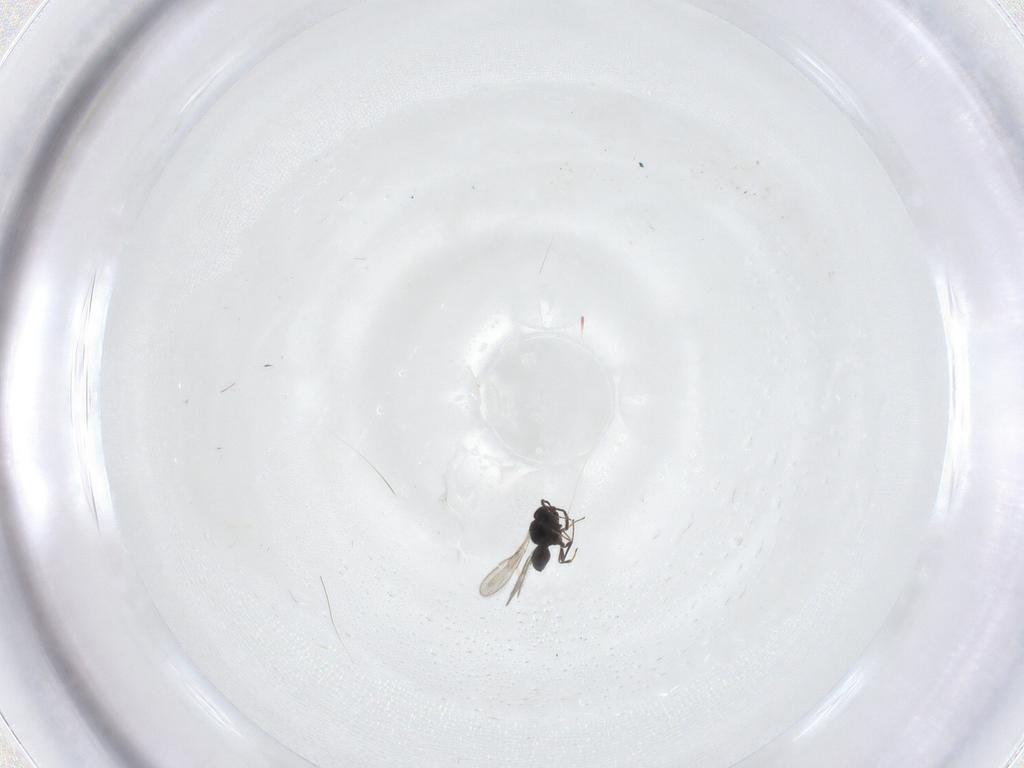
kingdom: Animalia
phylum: Arthropoda
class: Insecta
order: Hymenoptera
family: Scelionidae
